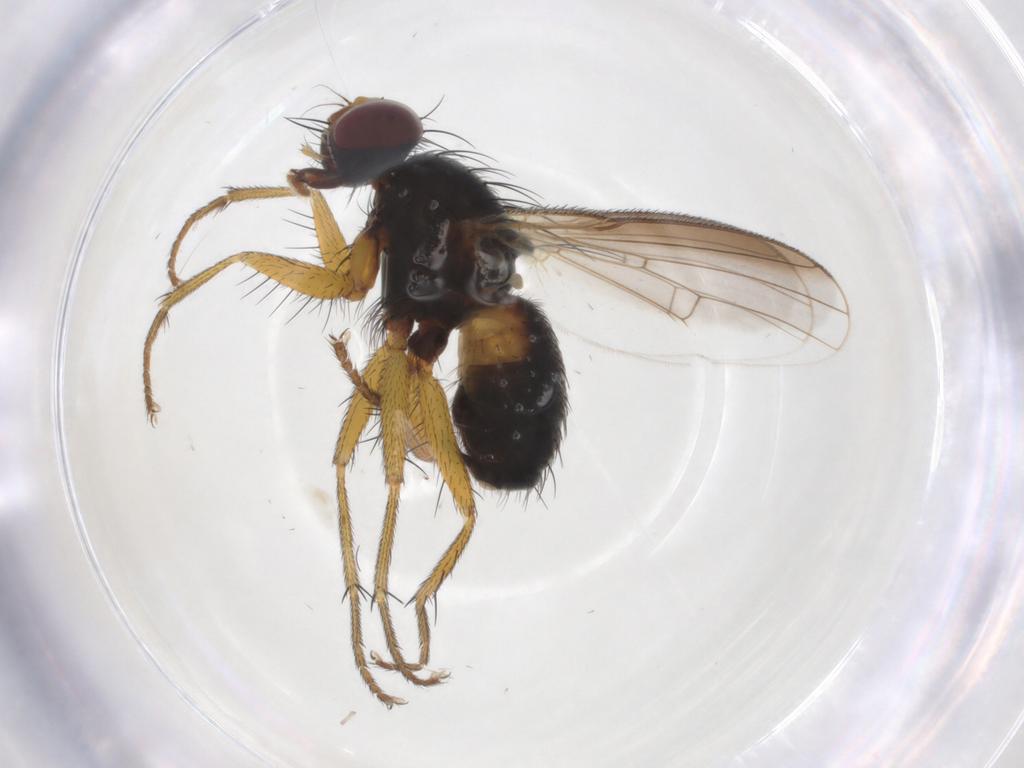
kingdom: Animalia
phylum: Arthropoda
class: Insecta
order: Diptera
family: Muscidae
